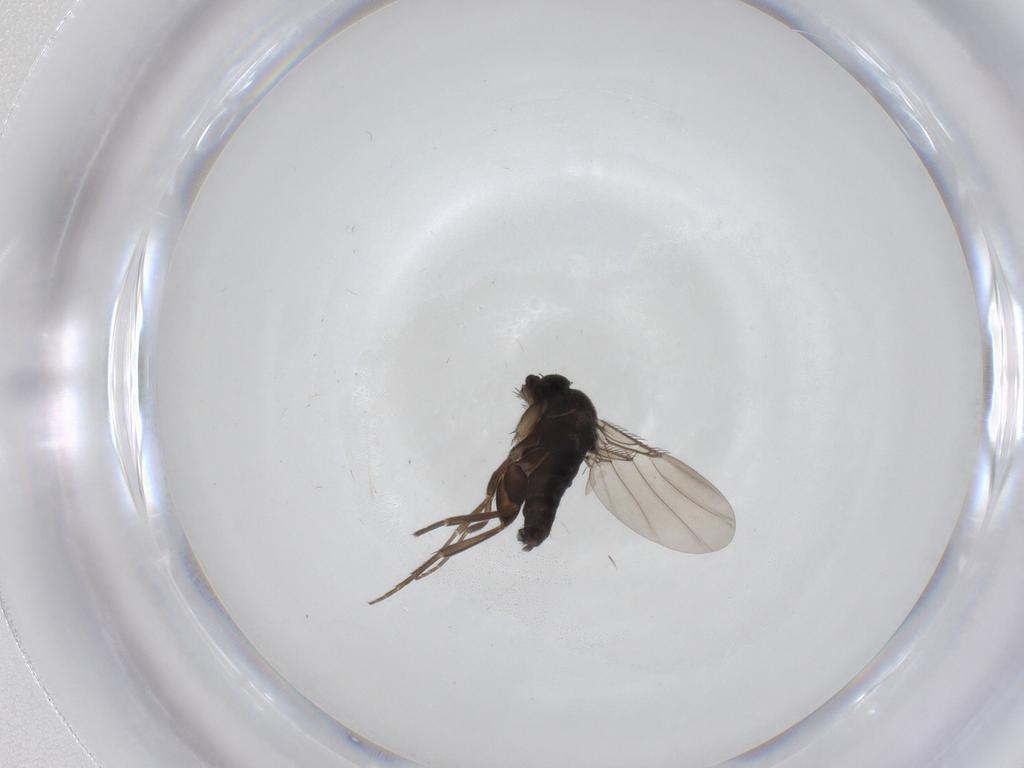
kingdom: Animalia
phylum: Arthropoda
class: Insecta
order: Diptera
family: Phoridae
